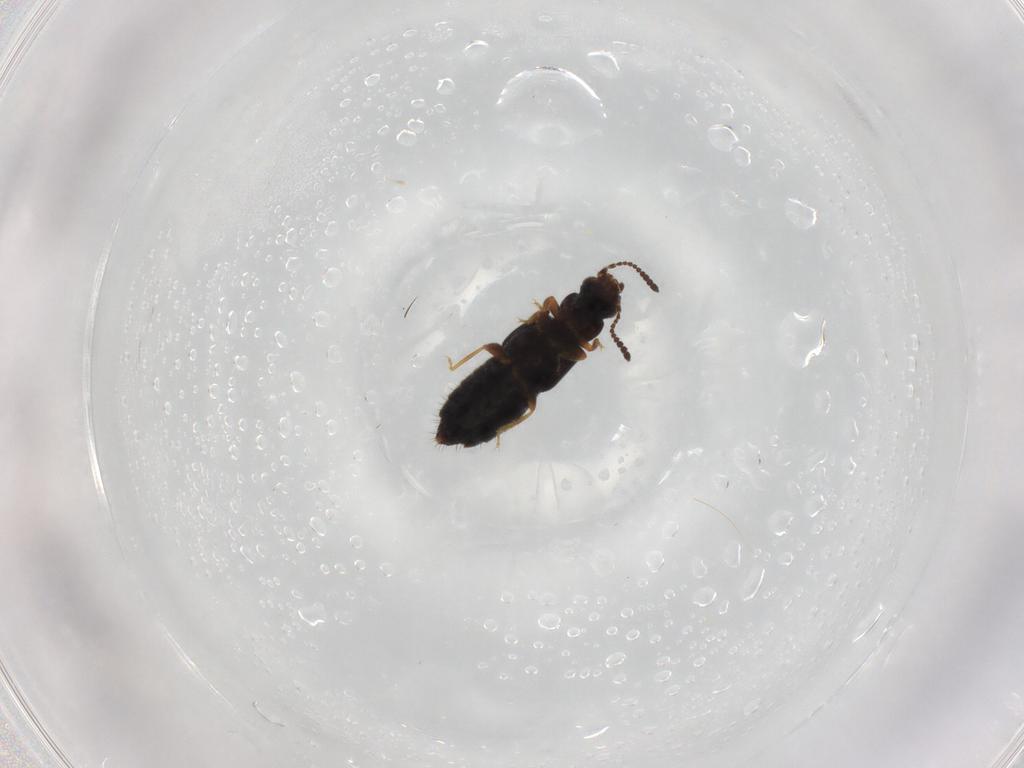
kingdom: Animalia
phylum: Arthropoda
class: Insecta
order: Coleoptera
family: Staphylinidae
